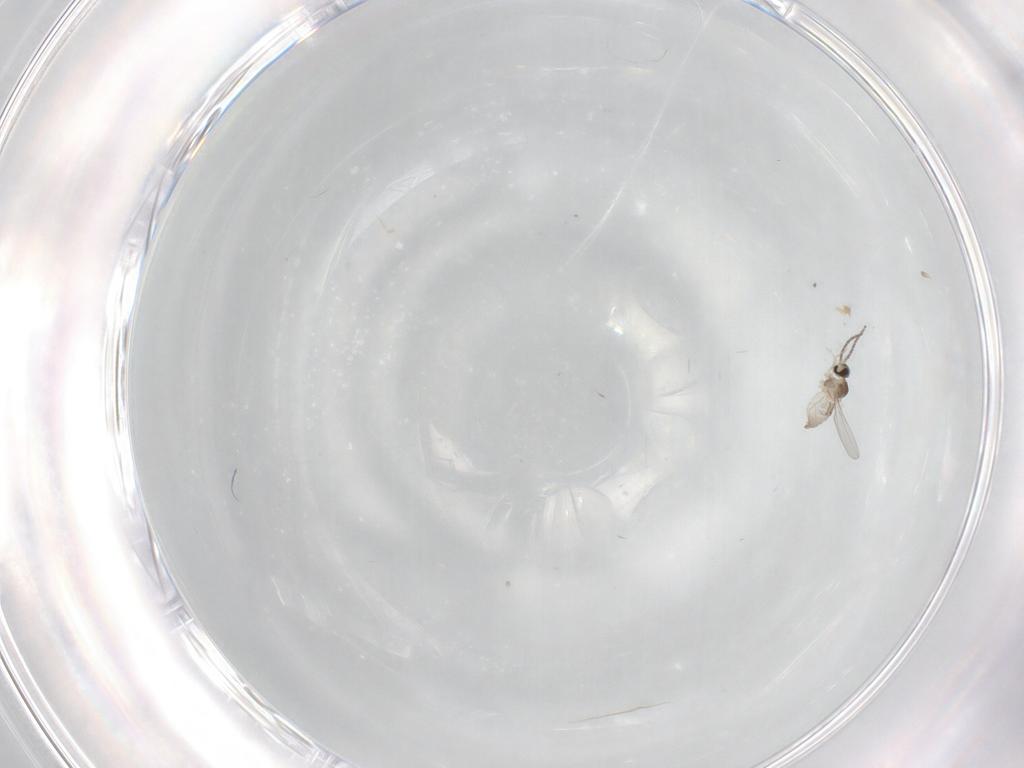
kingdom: Animalia
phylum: Arthropoda
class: Insecta
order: Diptera
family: Cecidomyiidae
